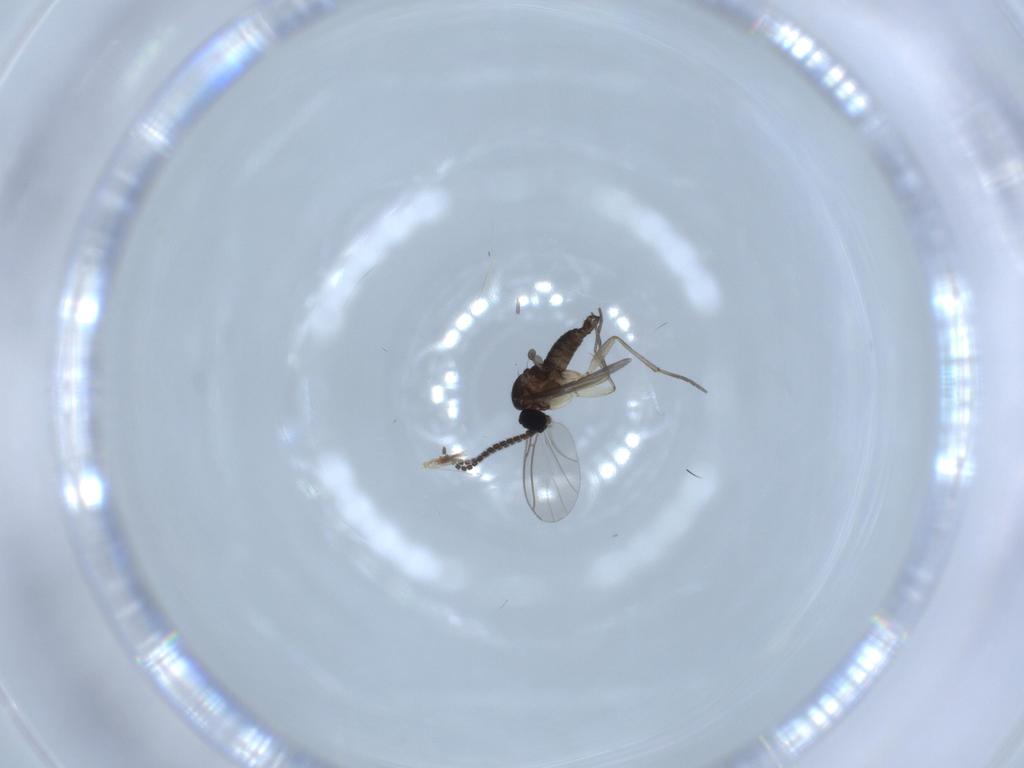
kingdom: Animalia
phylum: Arthropoda
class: Insecta
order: Diptera
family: Sciaridae
